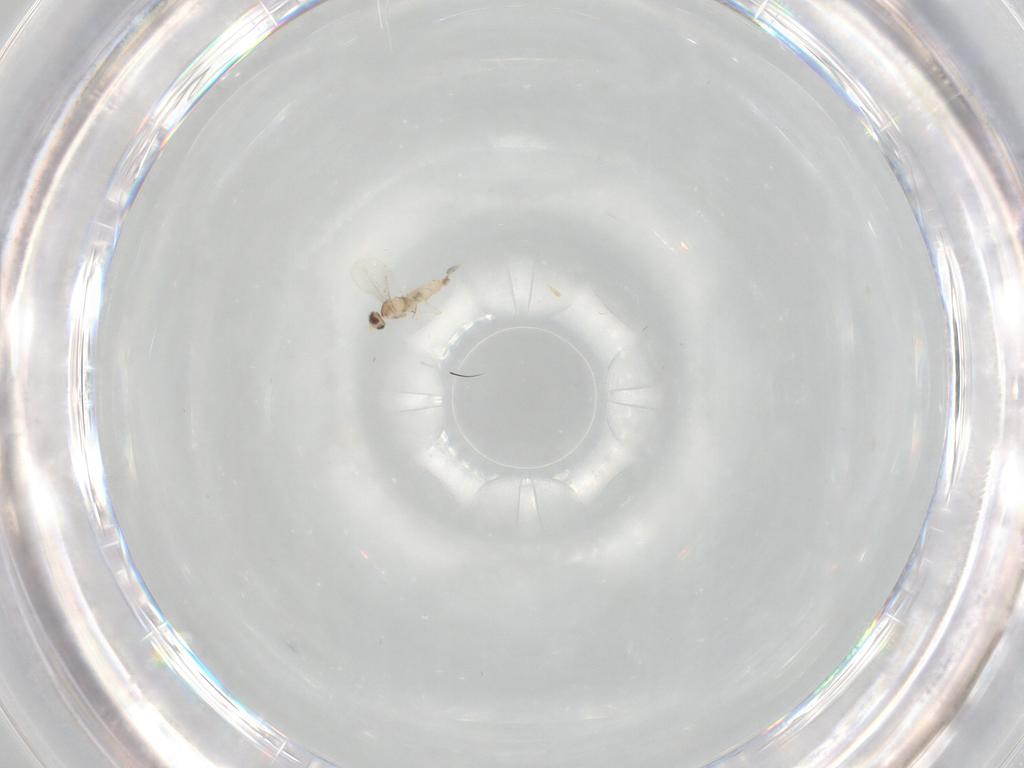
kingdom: Animalia
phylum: Arthropoda
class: Insecta
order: Diptera
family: Cecidomyiidae
